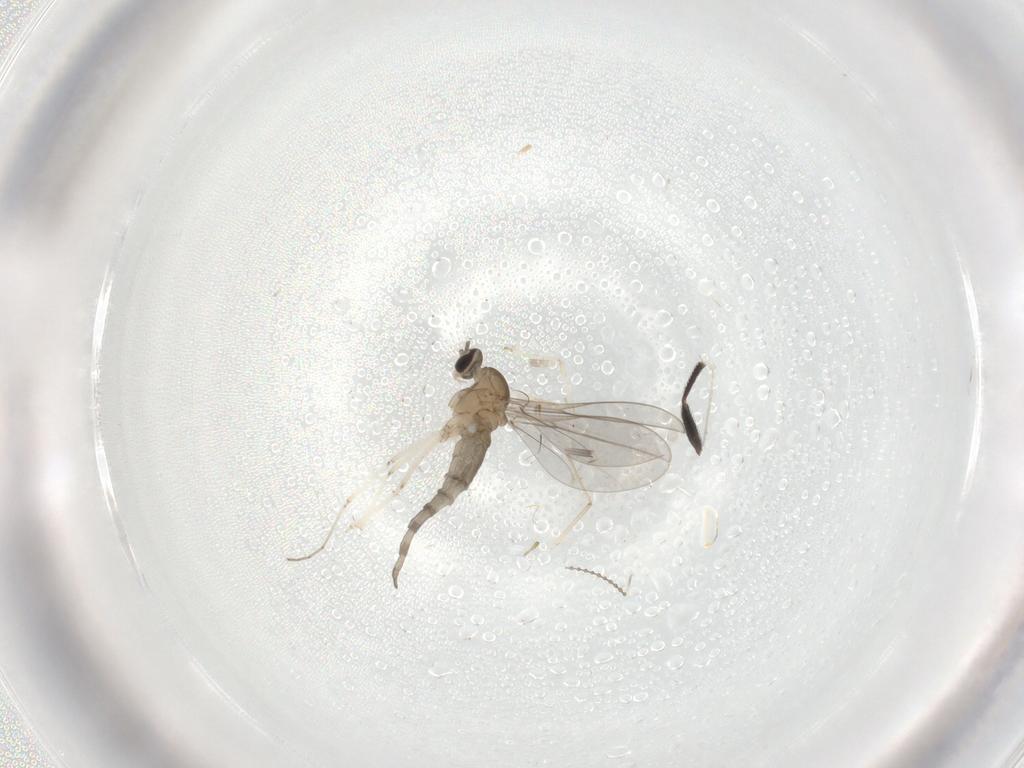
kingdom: Animalia
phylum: Arthropoda
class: Insecta
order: Diptera
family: Cecidomyiidae
